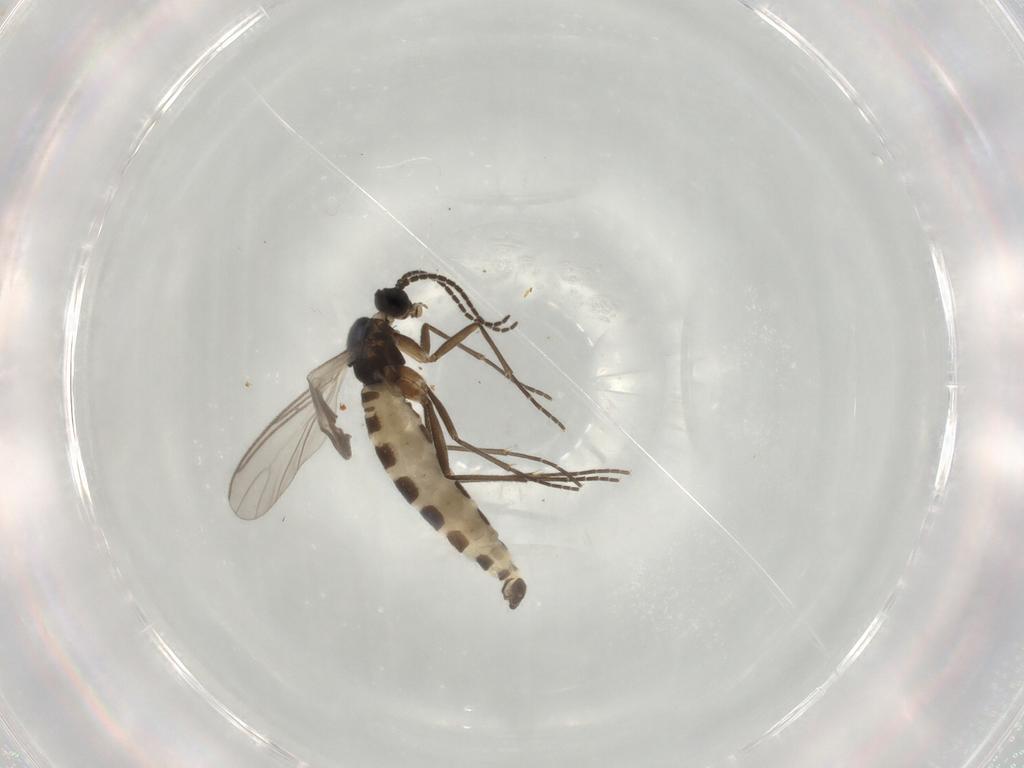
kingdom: Animalia
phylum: Arthropoda
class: Insecta
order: Diptera
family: Sciaridae
